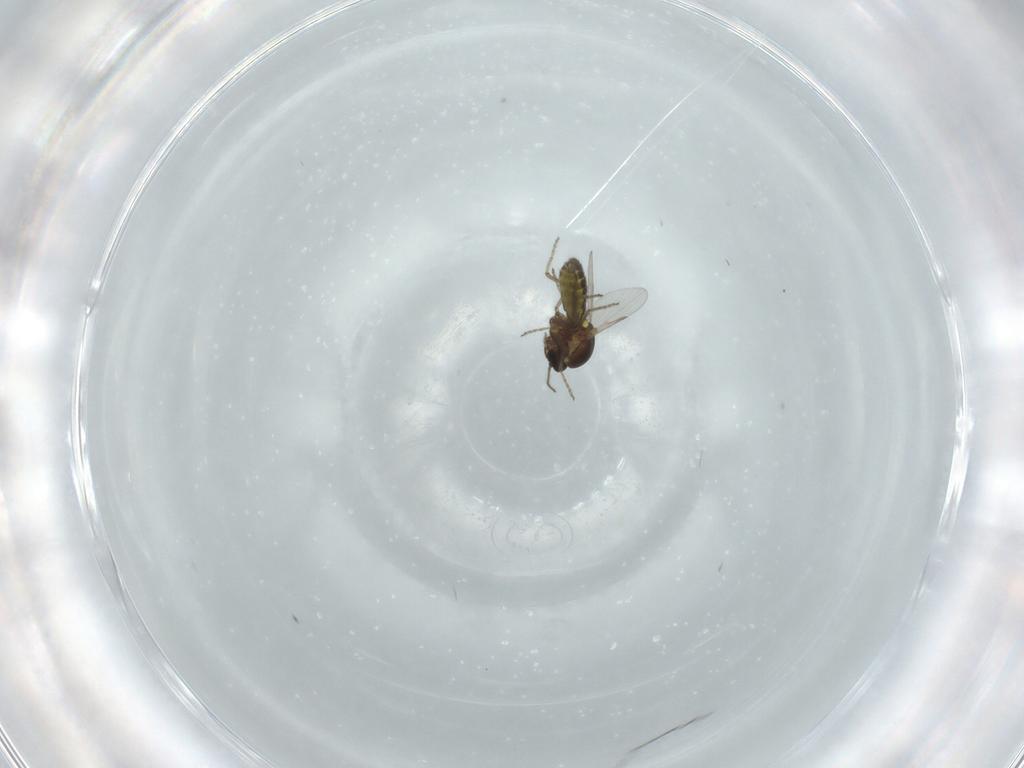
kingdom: Animalia
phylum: Arthropoda
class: Insecta
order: Diptera
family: Ceratopogonidae
